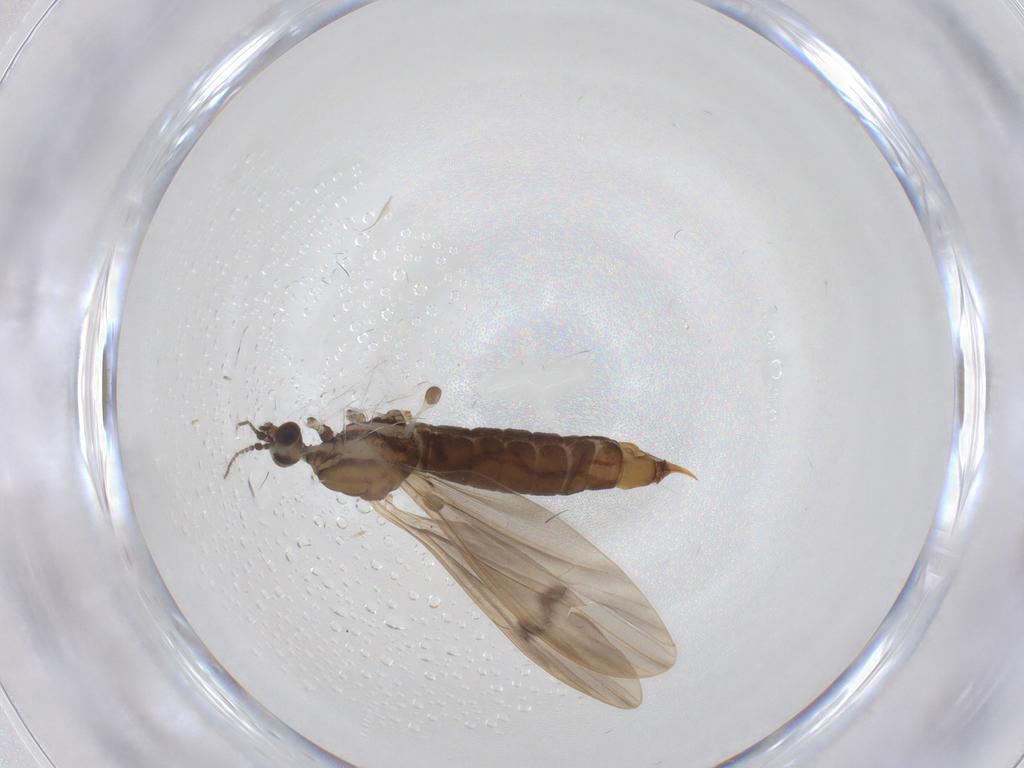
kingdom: Animalia
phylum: Arthropoda
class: Insecta
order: Diptera
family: Limoniidae
